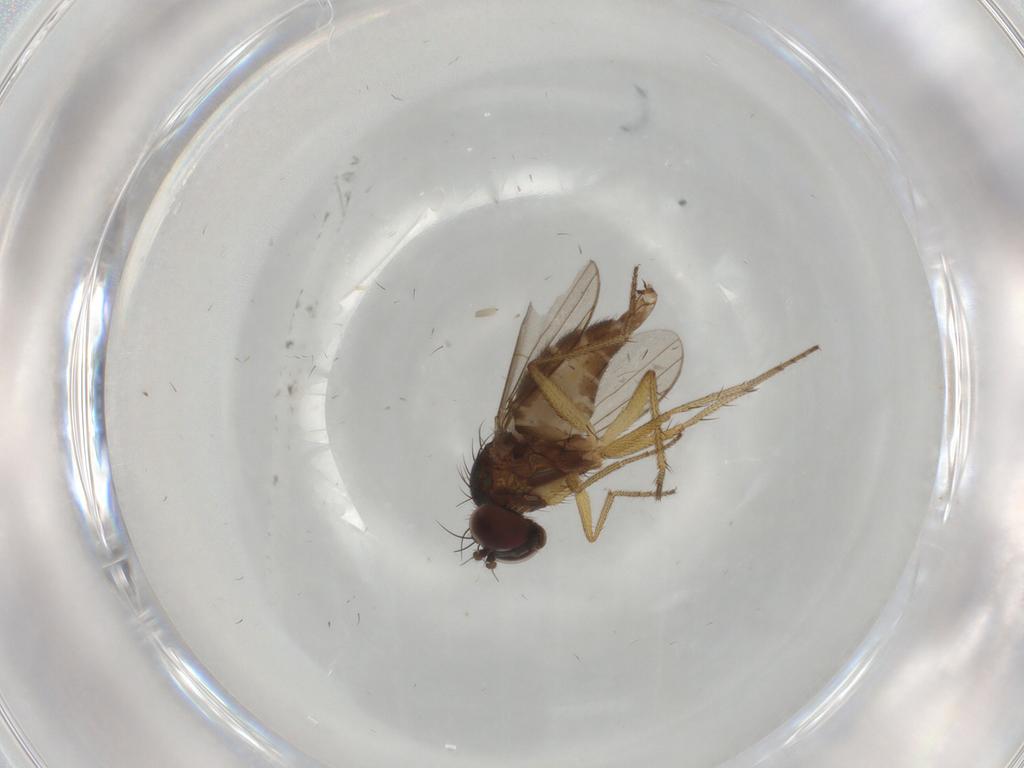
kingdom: Animalia
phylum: Arthropoda
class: Insecta
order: Diptera
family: Dolichopodidae
